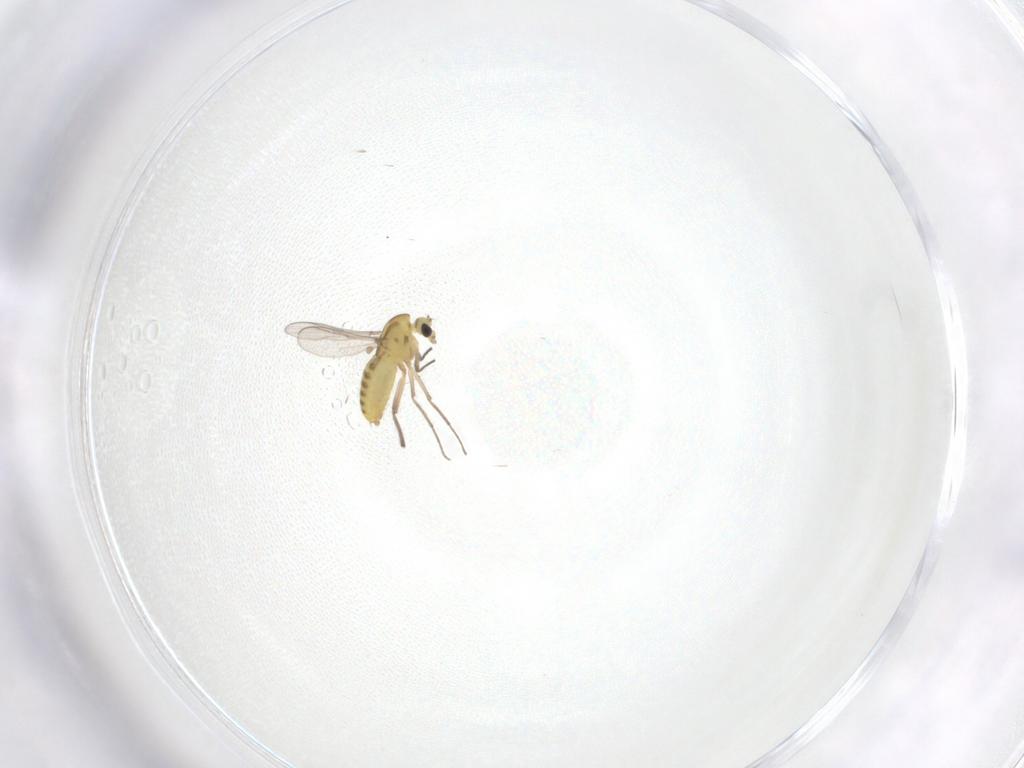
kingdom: Animalia
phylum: Arthropoda
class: Insecta
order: Diptera
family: Chironomidae
